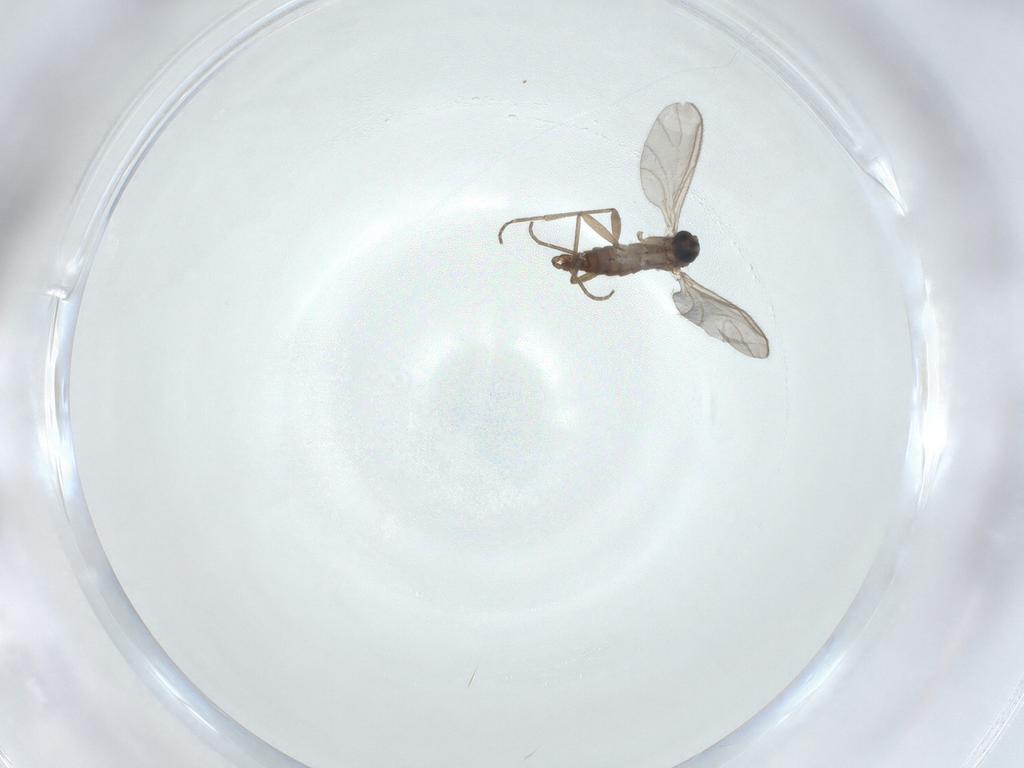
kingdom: Animalia
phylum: Arthropoda
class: Insecta
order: Diptera
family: Sciaridae
